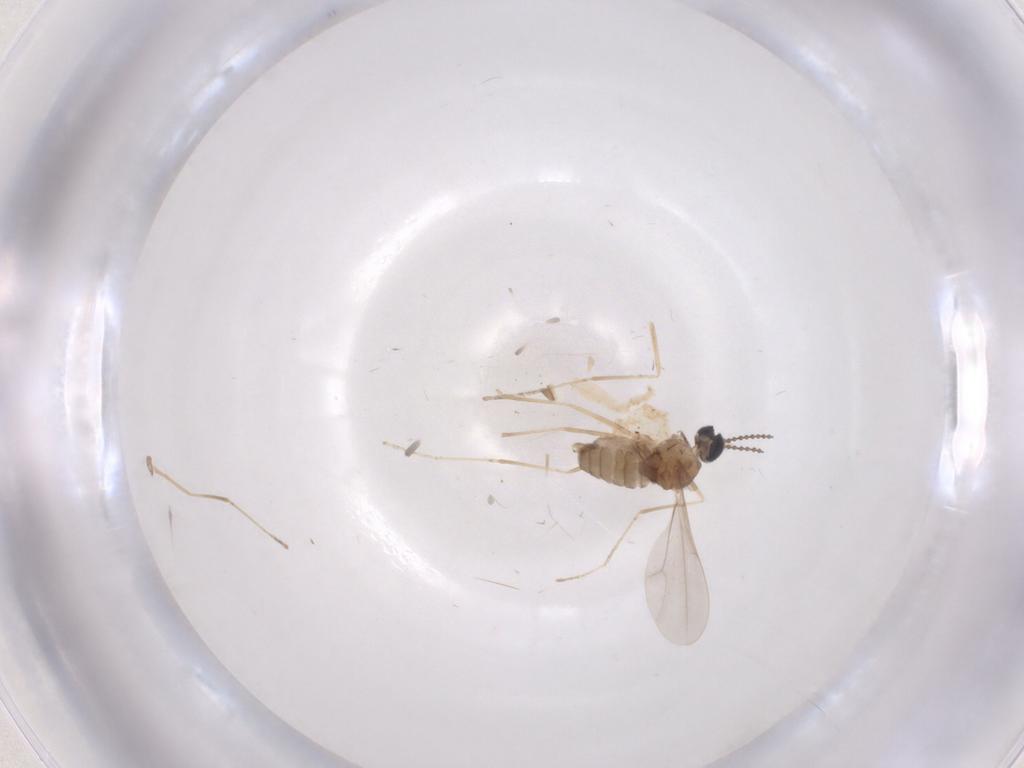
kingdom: Animalia
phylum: Arthropoda
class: Insecta
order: Diptera
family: Cecidomyiidae
